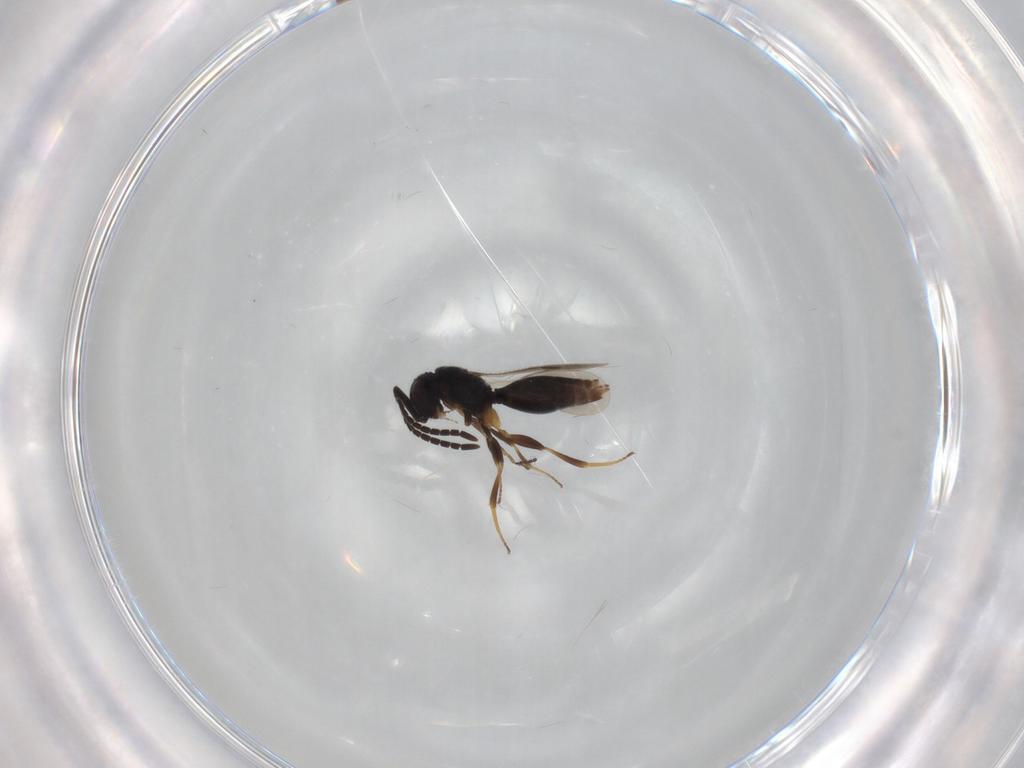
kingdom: Animalia
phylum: Arthropoda
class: Insecta
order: Hymenoptera
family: Megaspilidae
